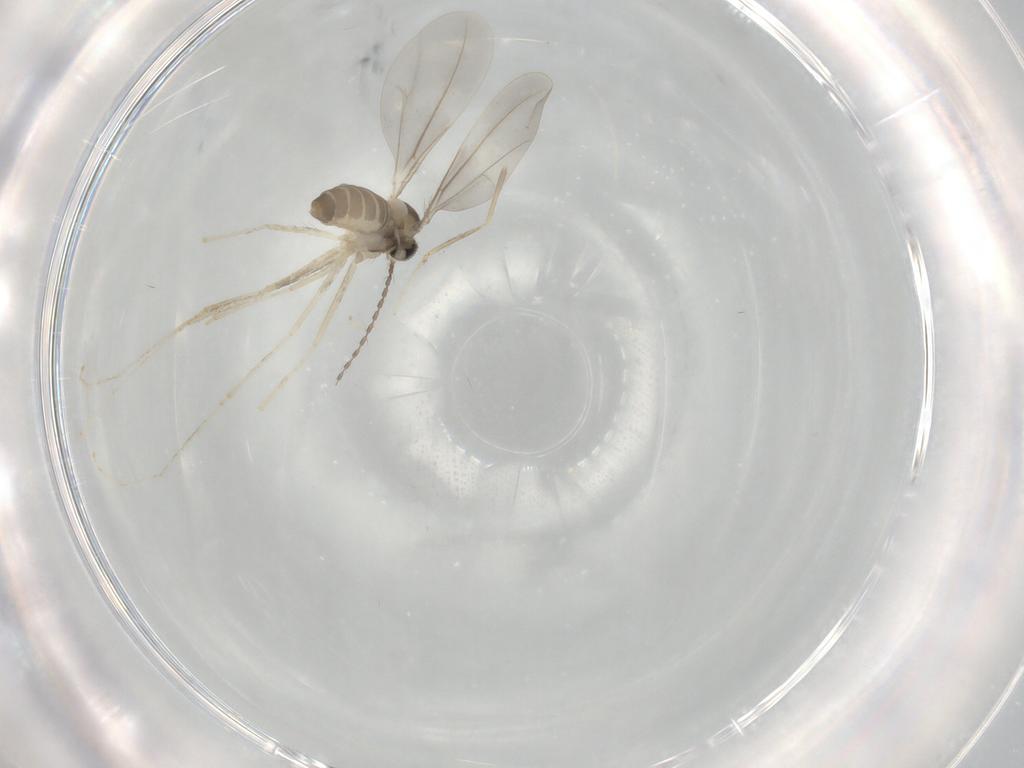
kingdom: Animalia
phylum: Arthropoda
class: Insecta
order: Diptera
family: Cecidomyiidae
